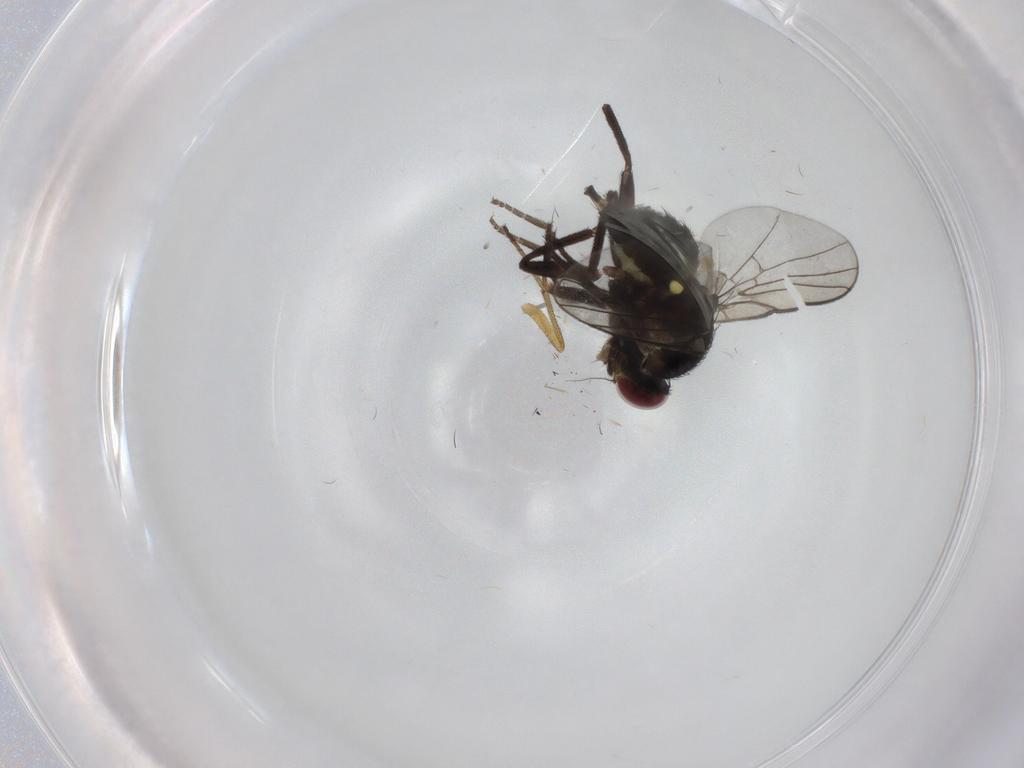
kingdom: Animalia
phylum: Arthropoda
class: Insecta
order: Diptera
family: Agromyzidae
